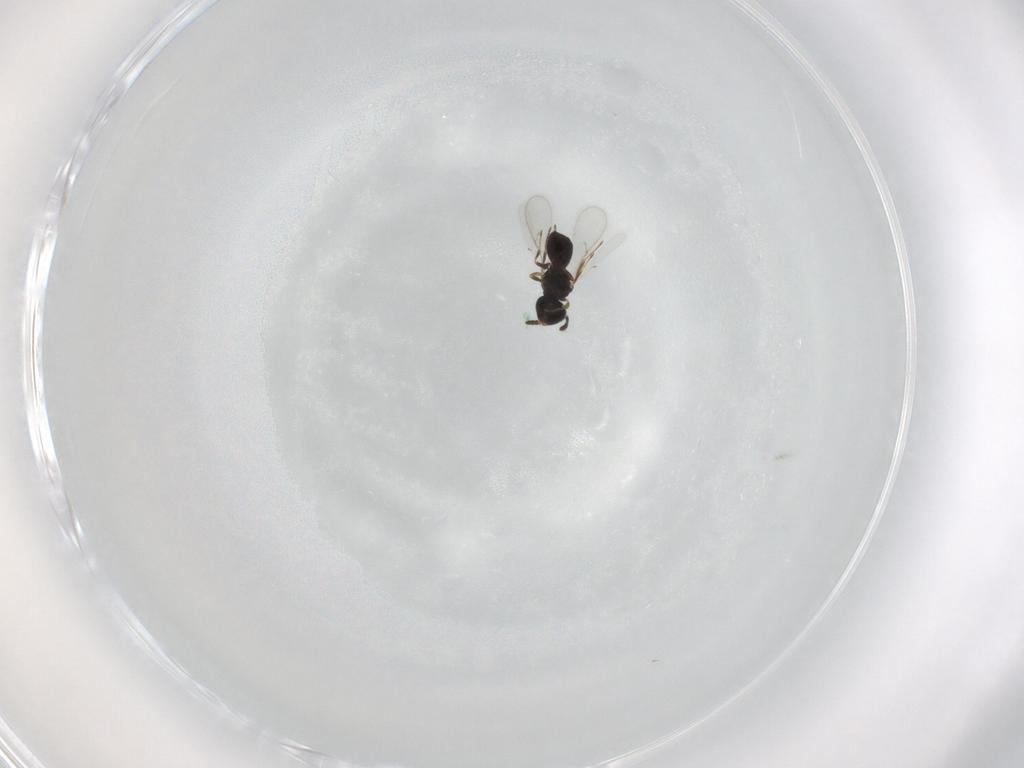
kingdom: Animalia
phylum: Arthropoda
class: Insecta
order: Hymenoptera
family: Scelionidae
